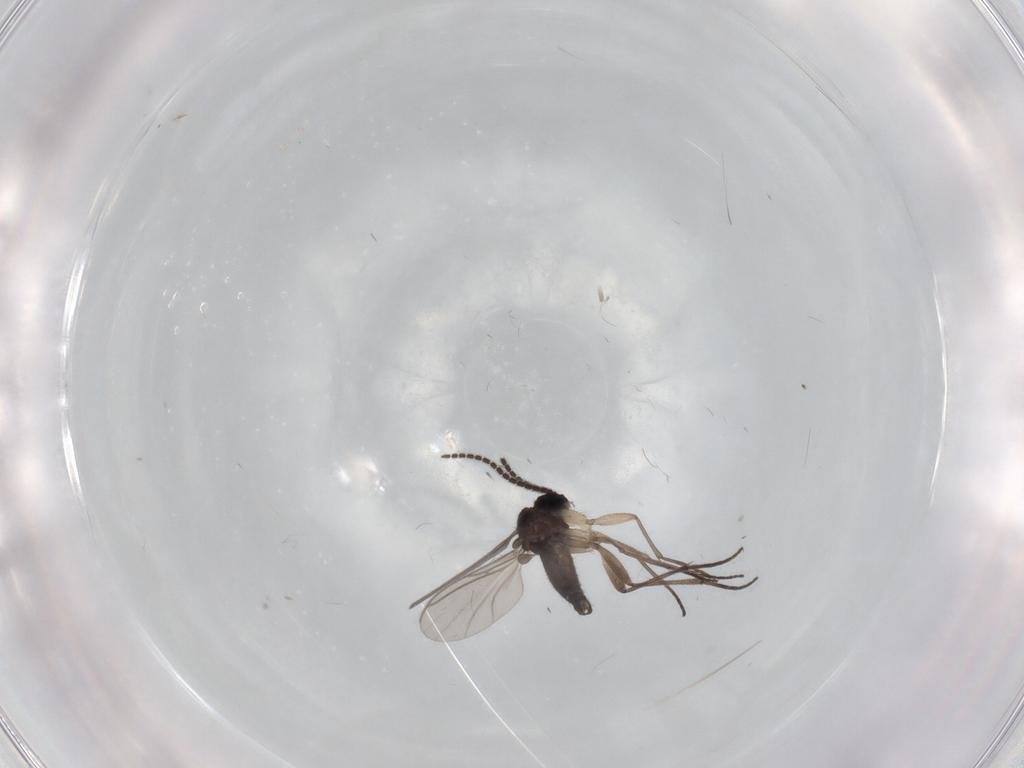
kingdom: Animalia
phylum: Arthropoda
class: Insecta
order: Diptera
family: Sciaridae
